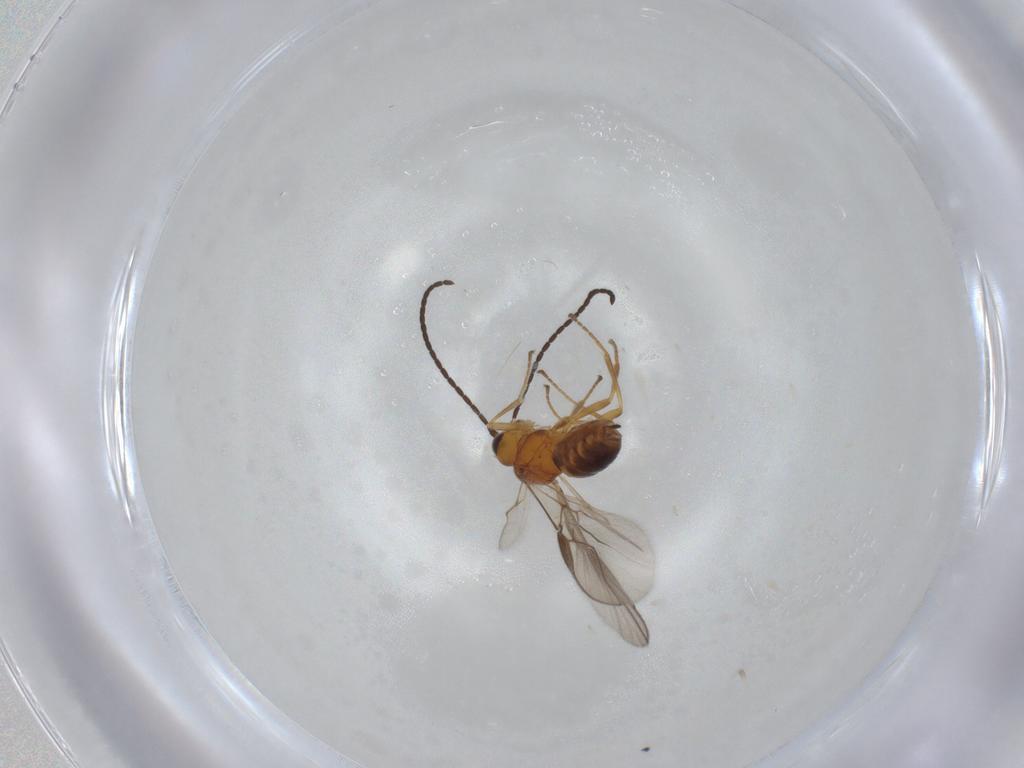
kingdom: Animalia
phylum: Arthropoda
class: Insecta
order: Hymenoptera
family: Braconidae
